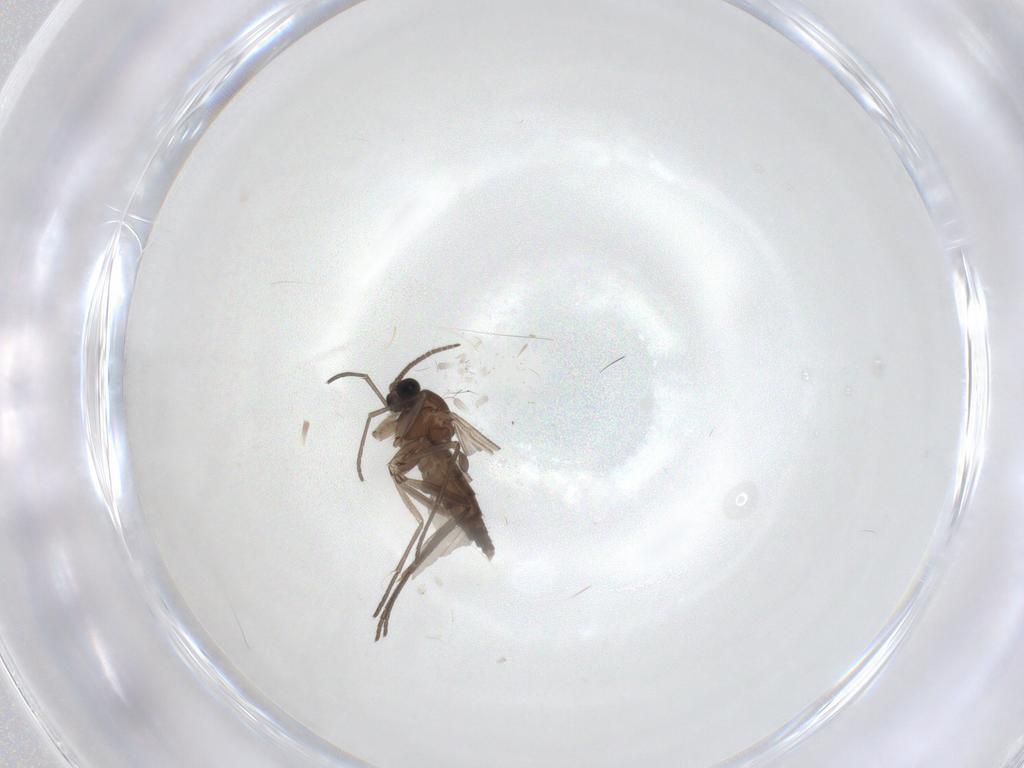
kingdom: Animalia
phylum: Arthropoda
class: Insecta
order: Diptera
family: Sciaridae
